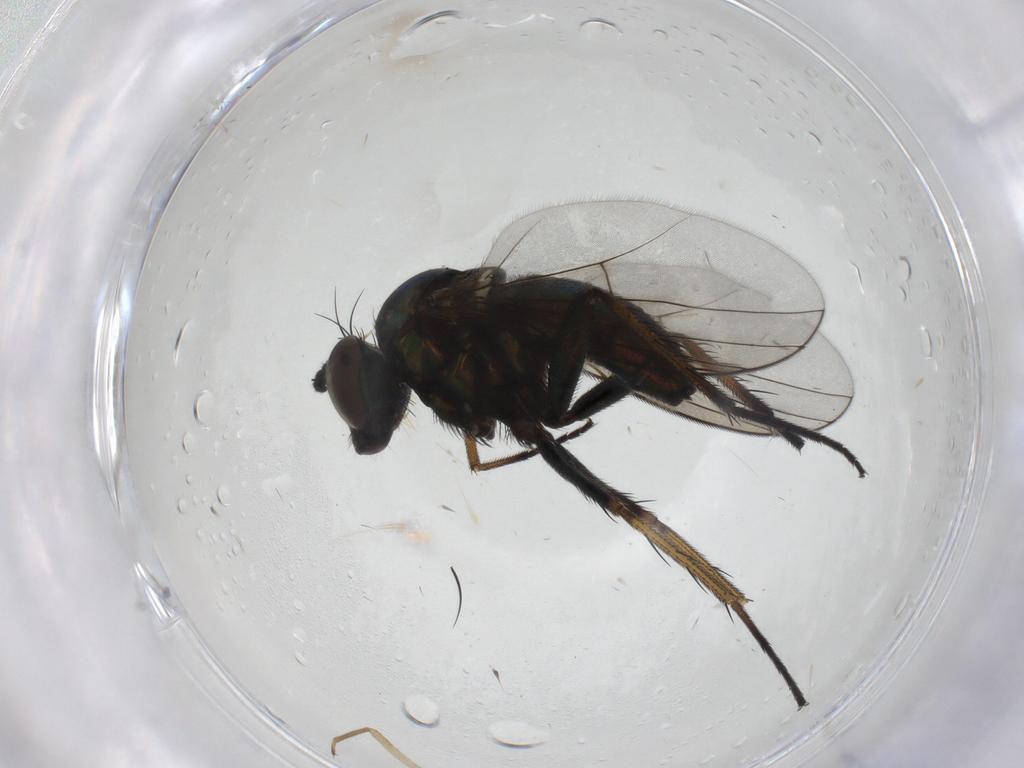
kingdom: Animalia
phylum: Arthropoda
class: Insecta
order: Diptera
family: Dolichopodidae
